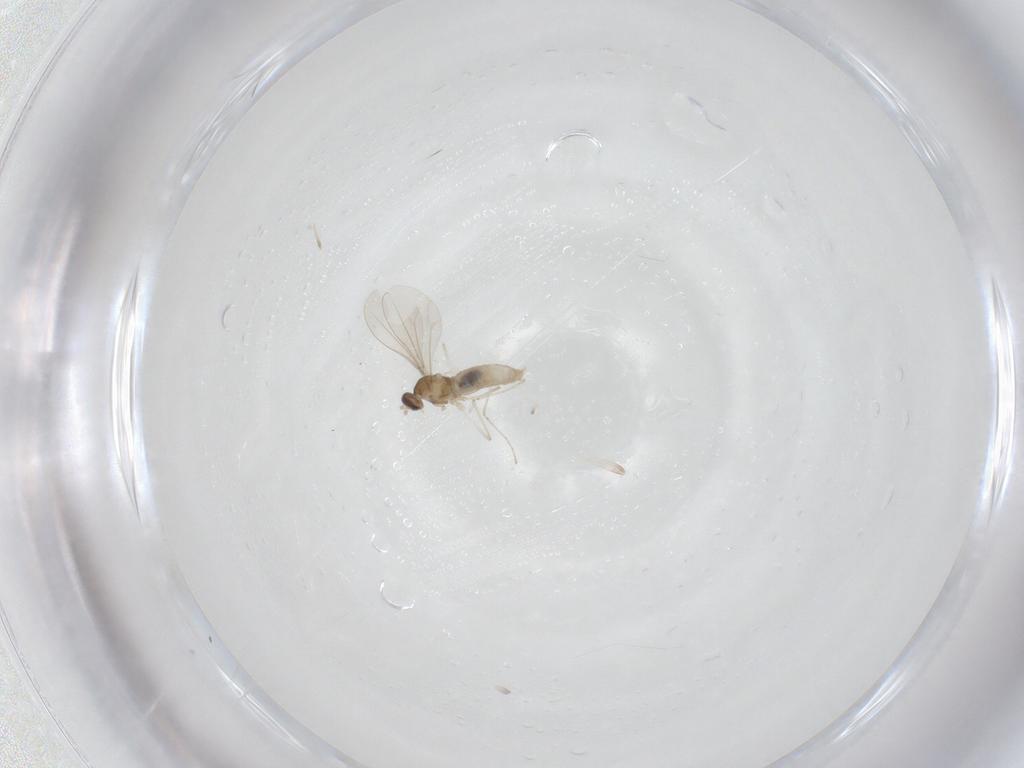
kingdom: Animalia
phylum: Arthropoda
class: Insecta
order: Diptera
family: Cecidomyiidae
